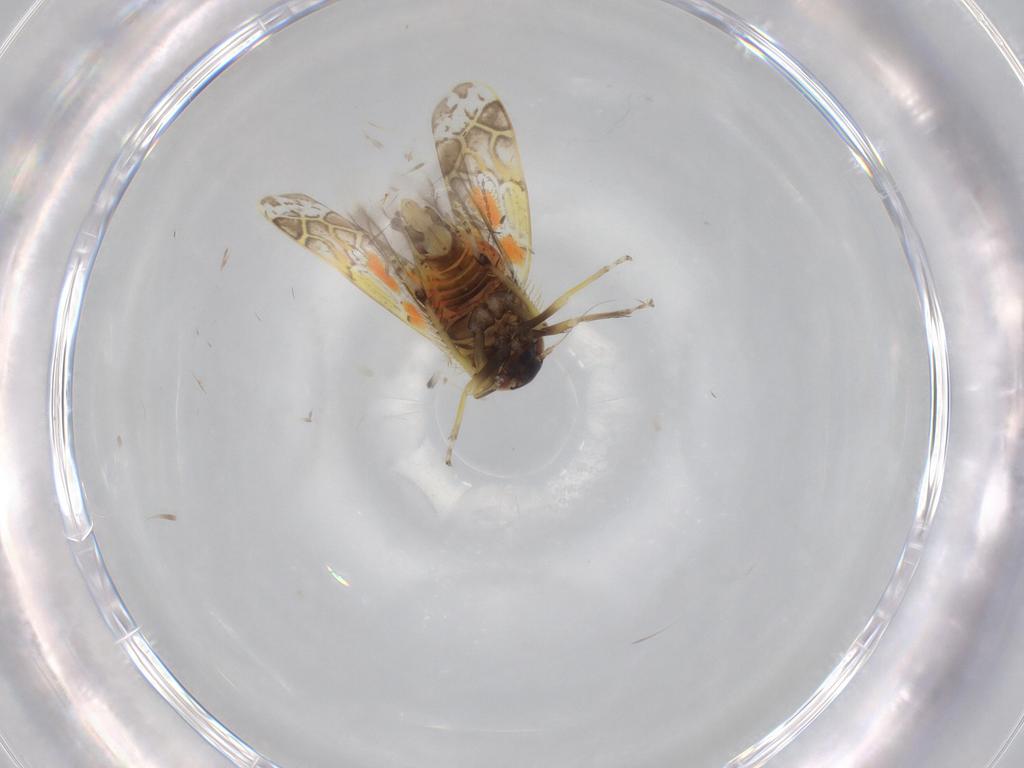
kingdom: Animalia
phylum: Arthropoda
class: Insecta
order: Hemiptera
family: Cicadellidae
